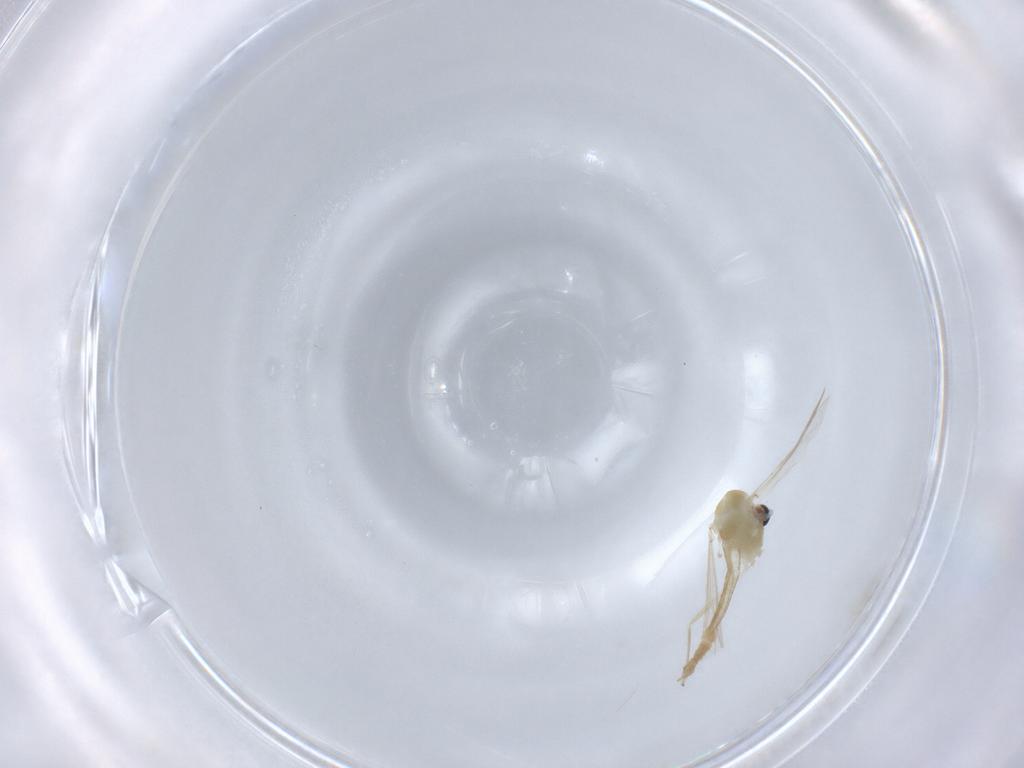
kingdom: Animalia
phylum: Arthropoda
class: Insecta
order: Diptera
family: Chironomidae
